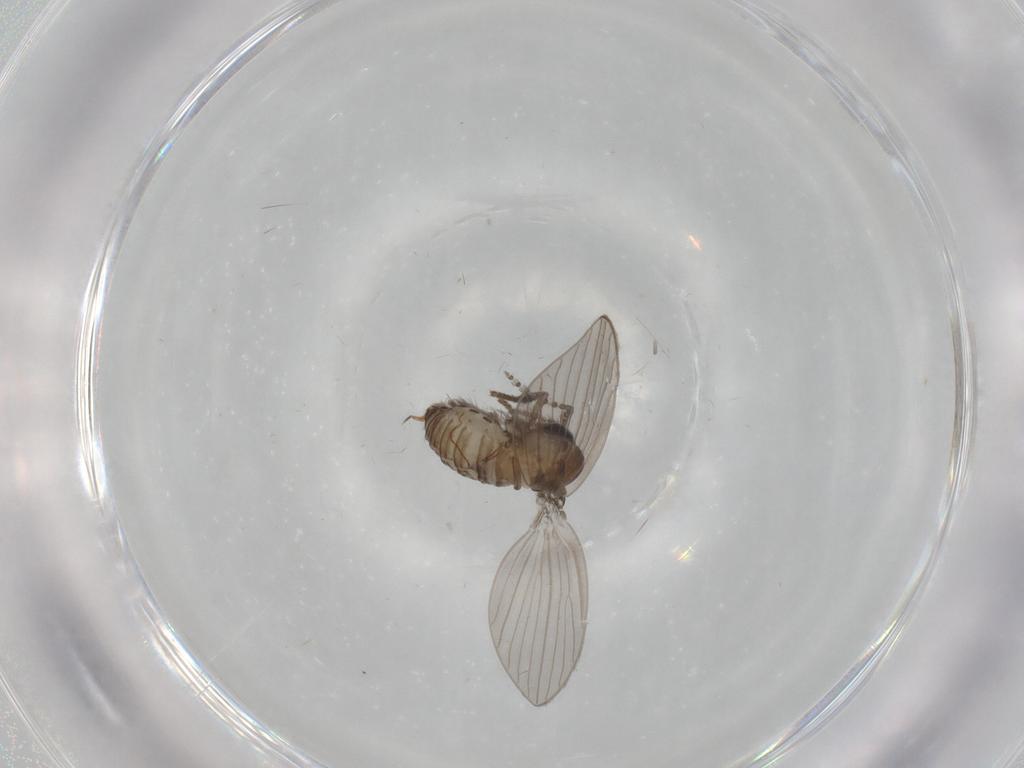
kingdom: Animalia
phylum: Arthropoda
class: Insecta
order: Diptera
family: Psychodidae
